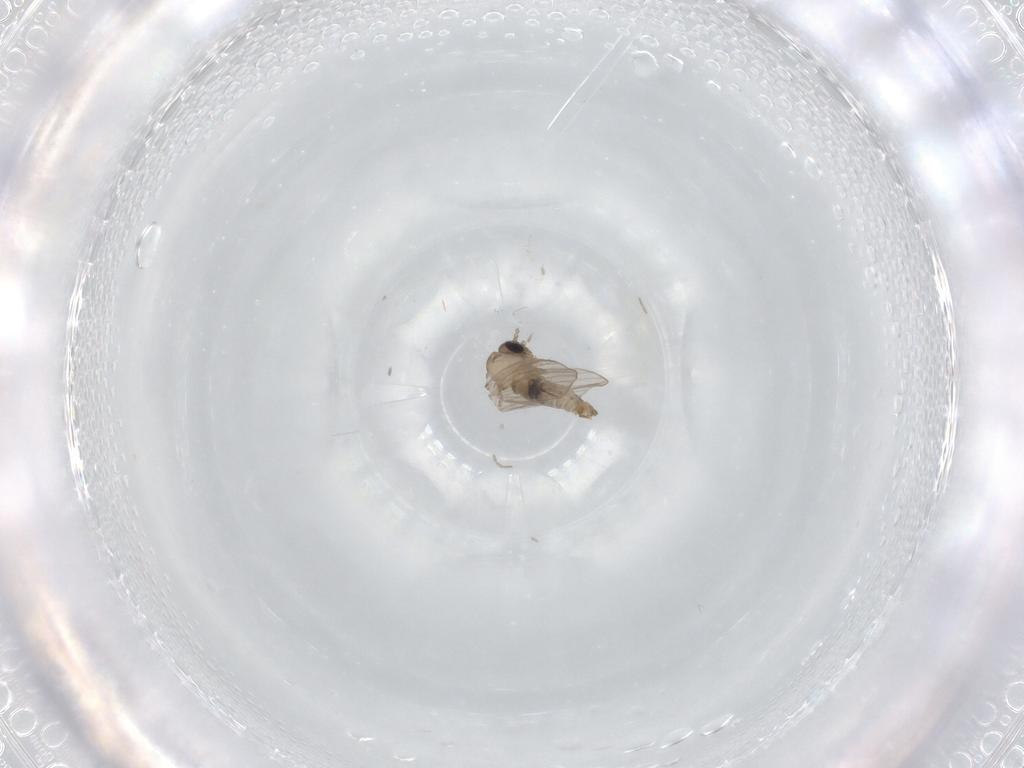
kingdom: Animalia
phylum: Arthropoda
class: Insecta
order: Diptera
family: Psychodidae
